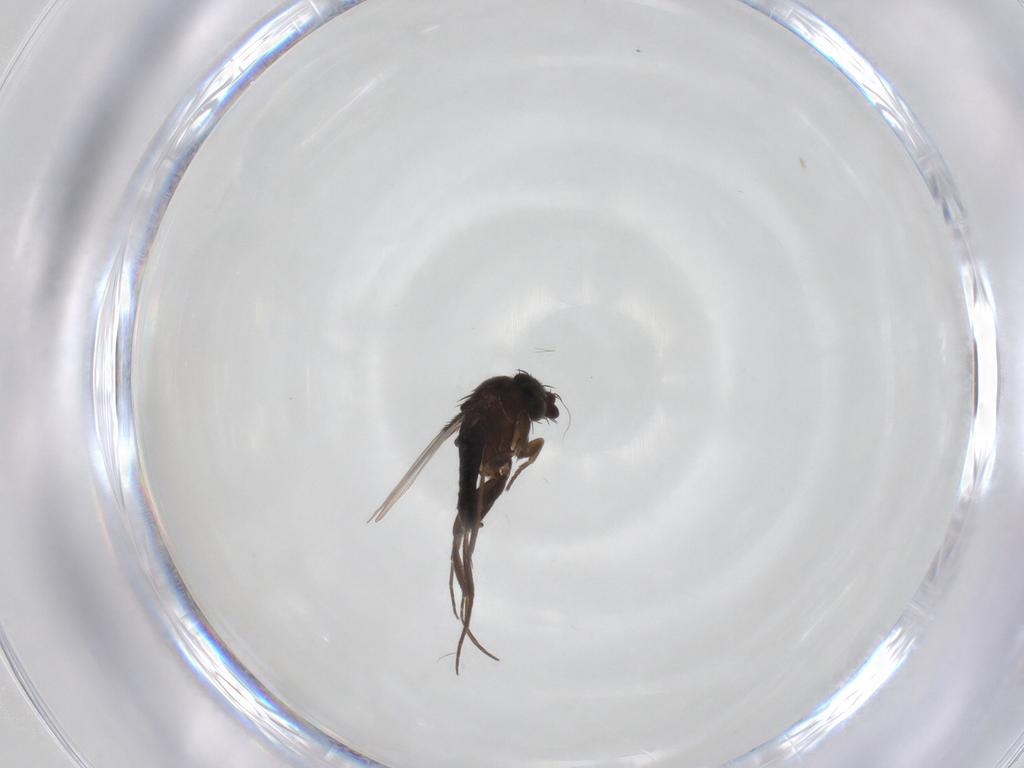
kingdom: Animalia
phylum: Arthropoda
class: Insecta
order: Diptera
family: Phoridae
